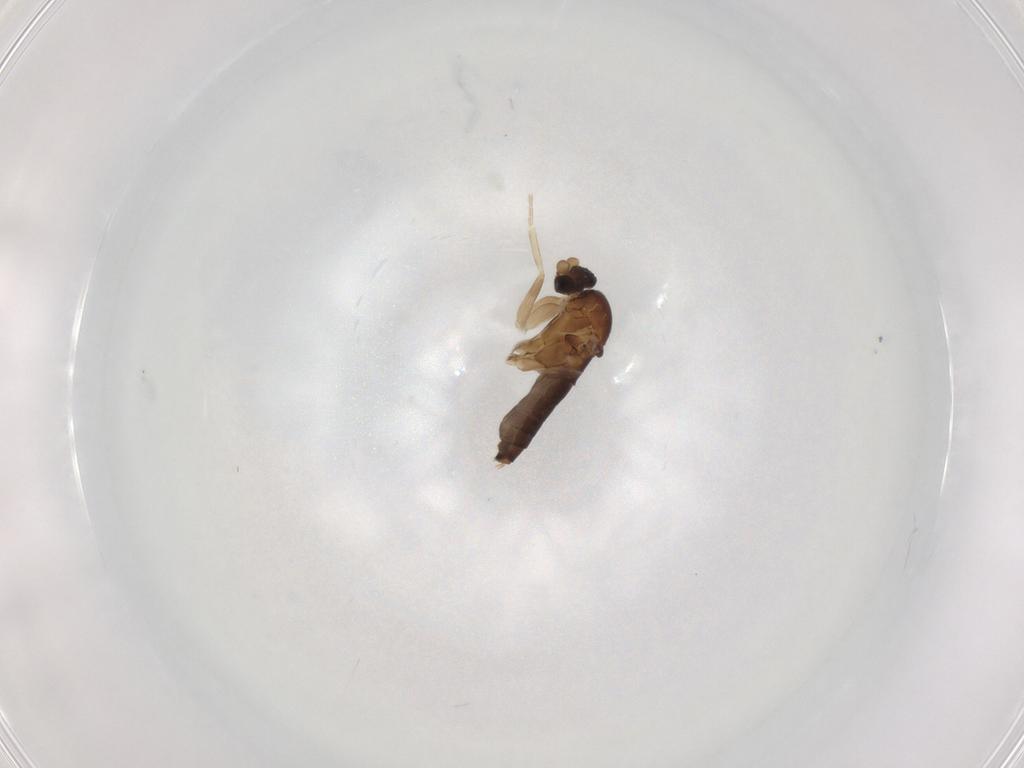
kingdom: Animalia
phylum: Arthropoda
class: Insecta
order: Diptera
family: Phoridae
